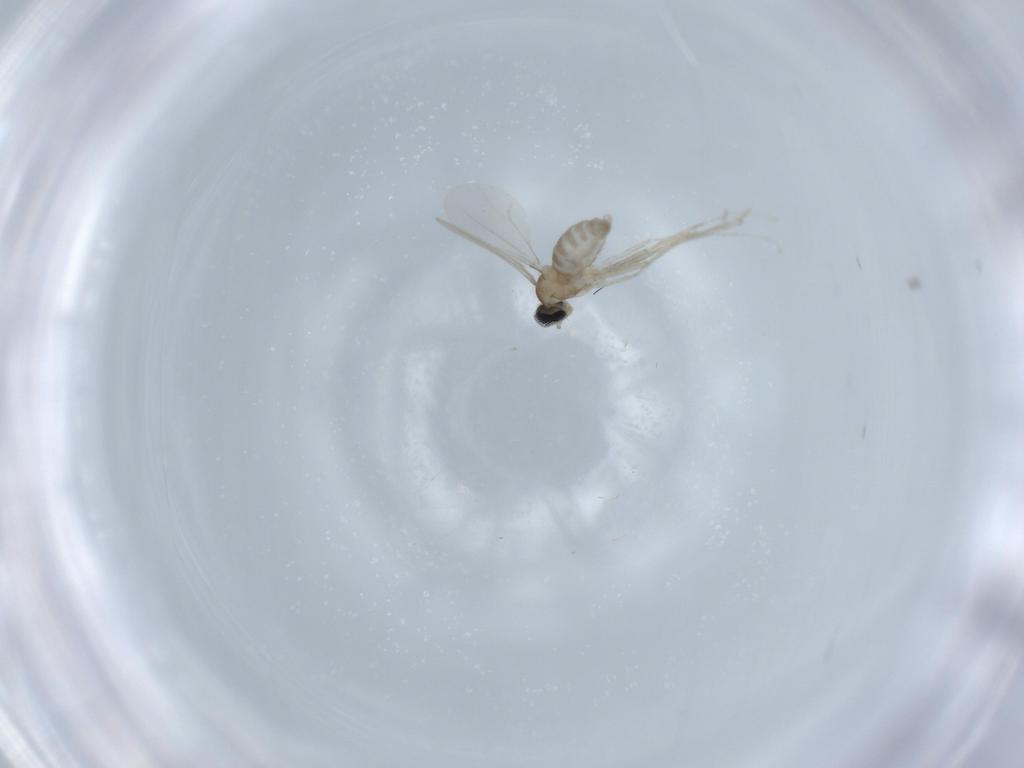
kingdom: Animalia
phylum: Arthropoda
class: Insecta
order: Diptera
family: Cecidomyiidae
